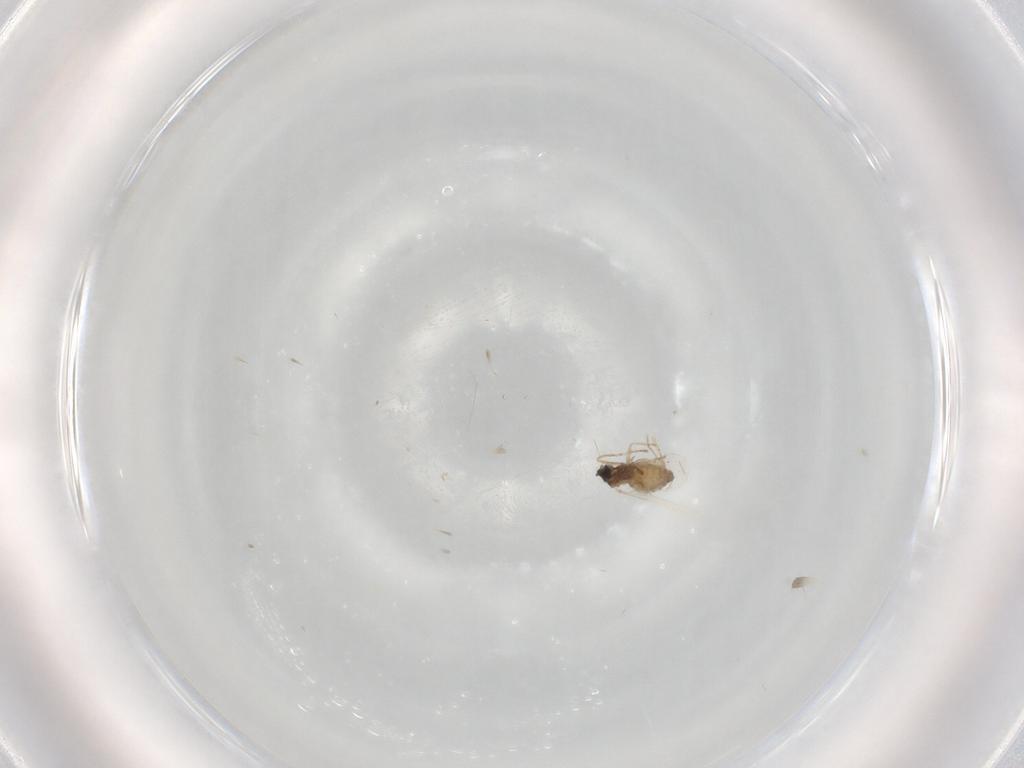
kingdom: Animalia
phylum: Arthropoda
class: Insecta
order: Diptera
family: Cecidomyiidae
